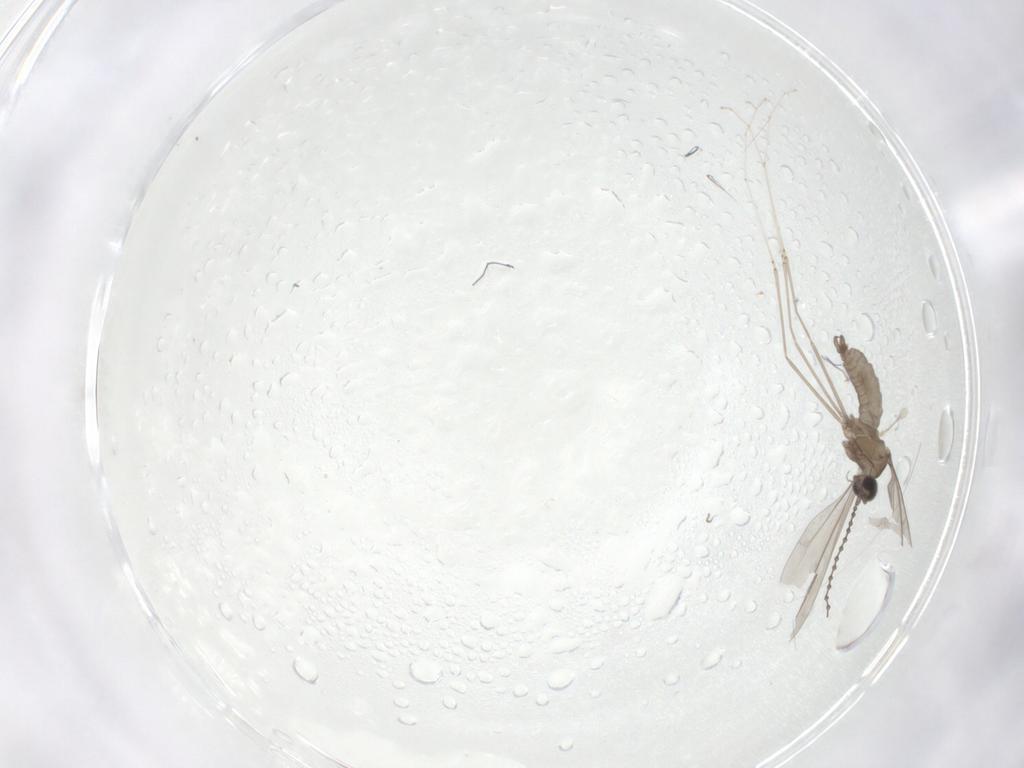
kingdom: Animalia
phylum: Arthropoda
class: Insecta
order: Diptera
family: Cecidomyiidae
